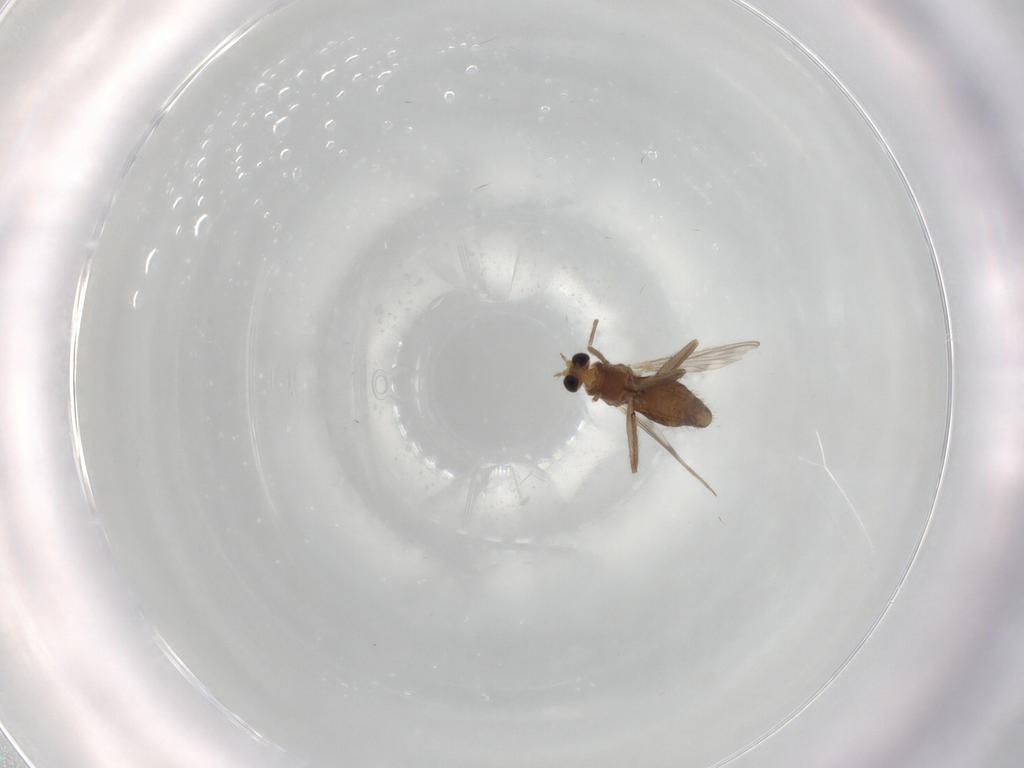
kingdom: Animalia
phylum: Arthropoda
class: Insecta
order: Diptera
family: Chironomidae
